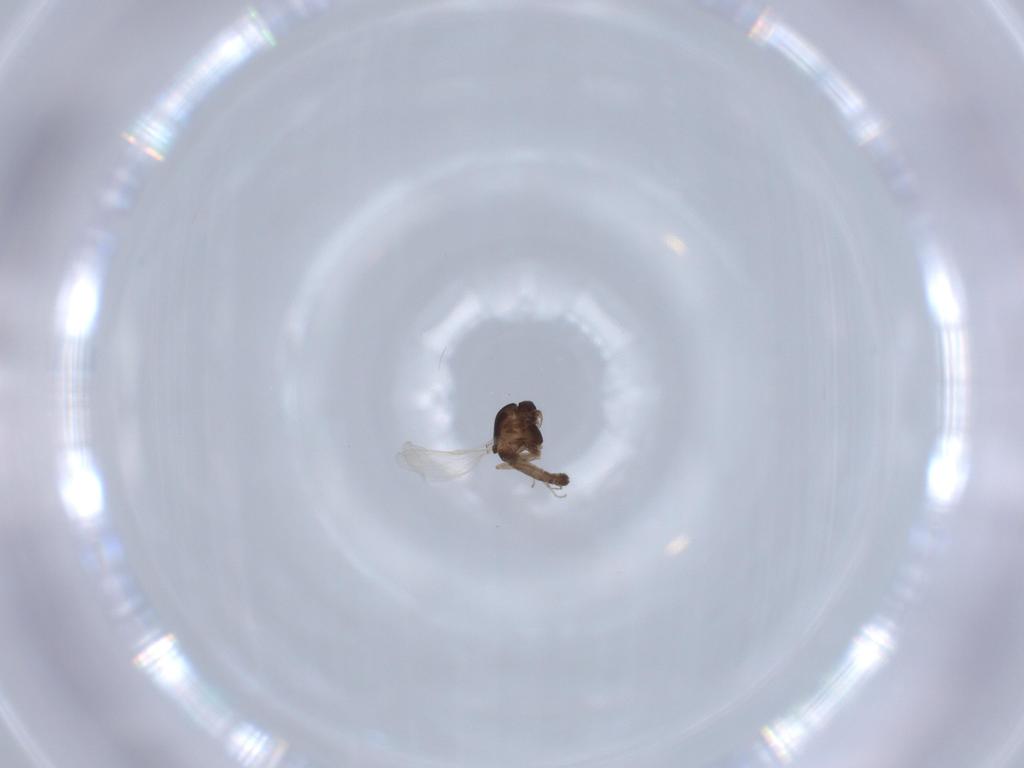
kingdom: Animalia
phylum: Arthropoda
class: Insecta
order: Diptera
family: Chironomidae
